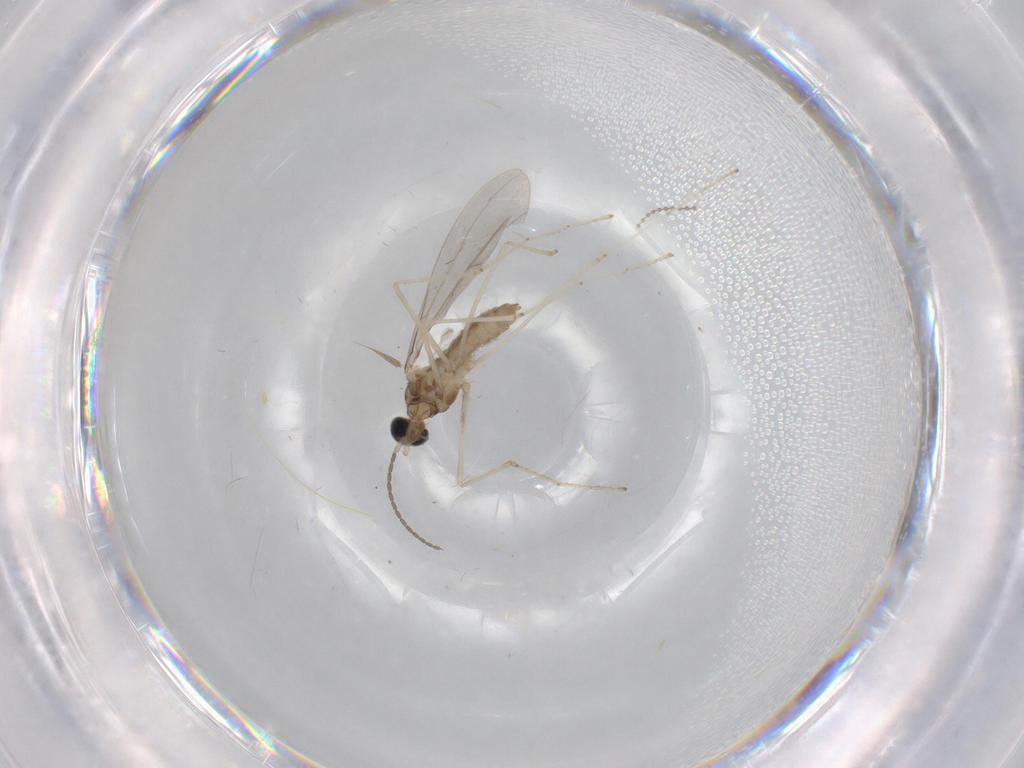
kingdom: Animalia
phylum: Arthropoda
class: Insecta
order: Diptera
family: Cecidomyiidae
